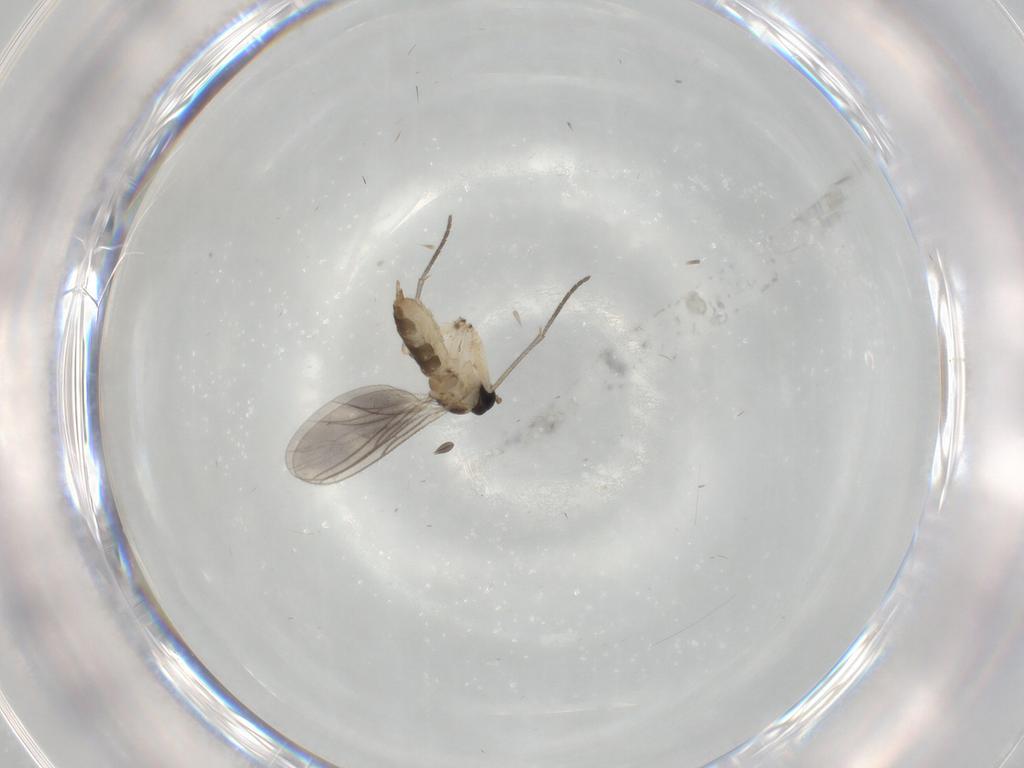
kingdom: Animalia
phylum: Arthropoda
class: Insecta
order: Diptera
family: Sciaridae
